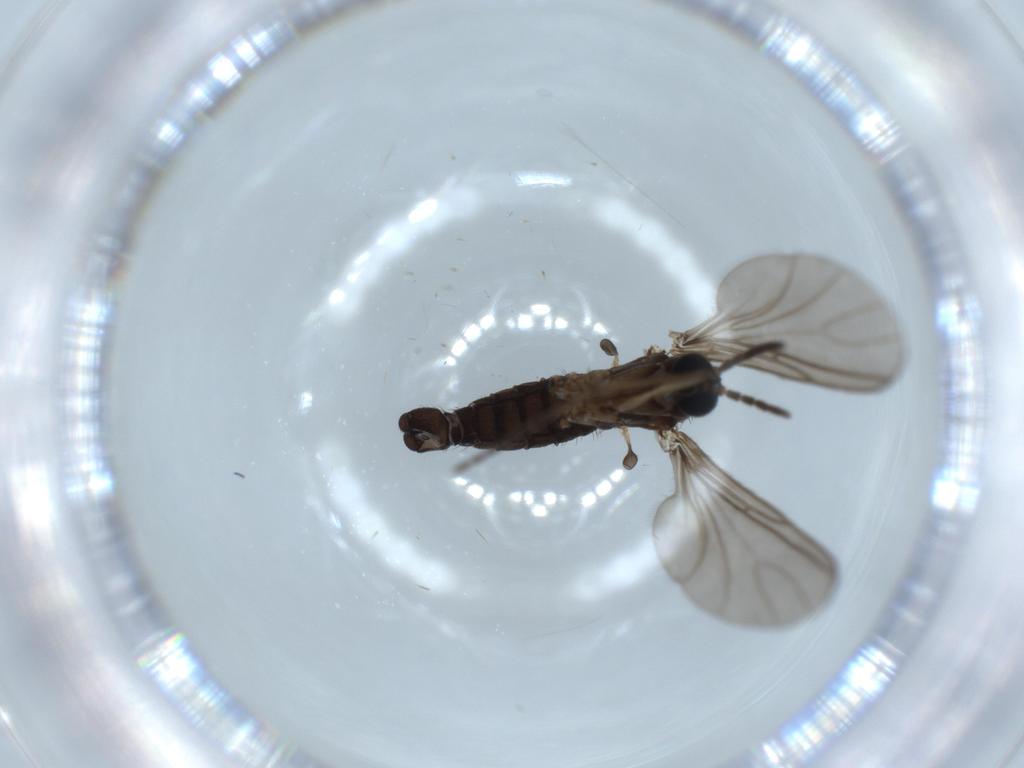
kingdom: Animalia
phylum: Arthropoda
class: Insecta
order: Diptera
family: Sciaridae
